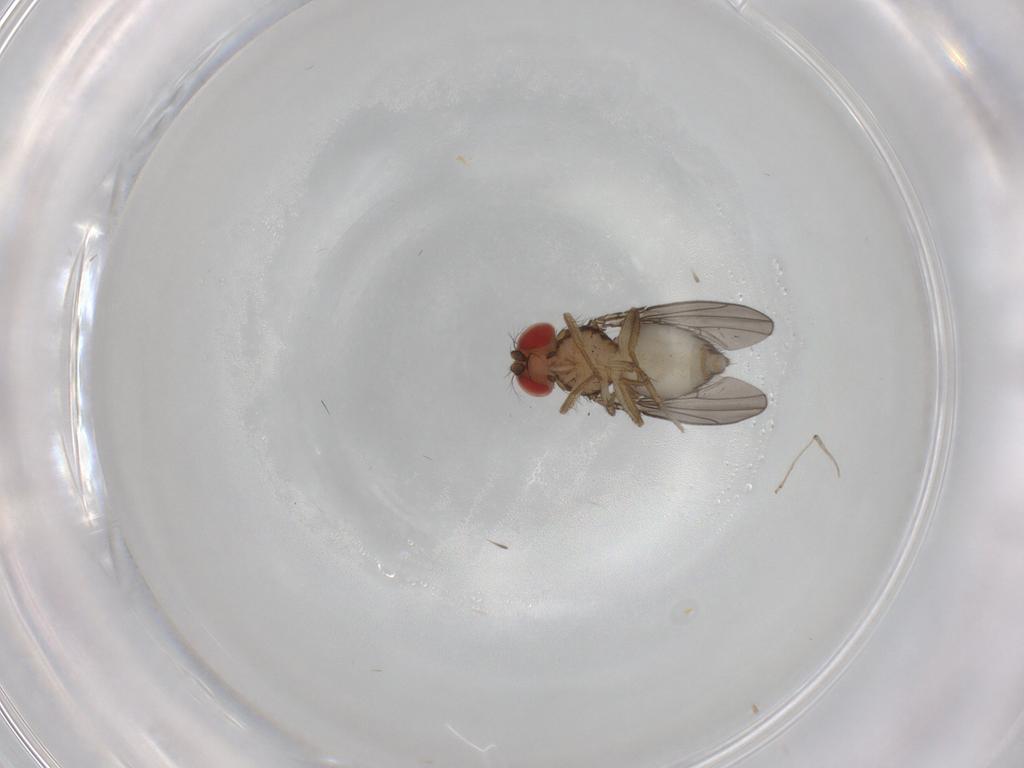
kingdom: Animalia
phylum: Arthropoda
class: Insecta
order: Diptera
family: Drosophilidae
